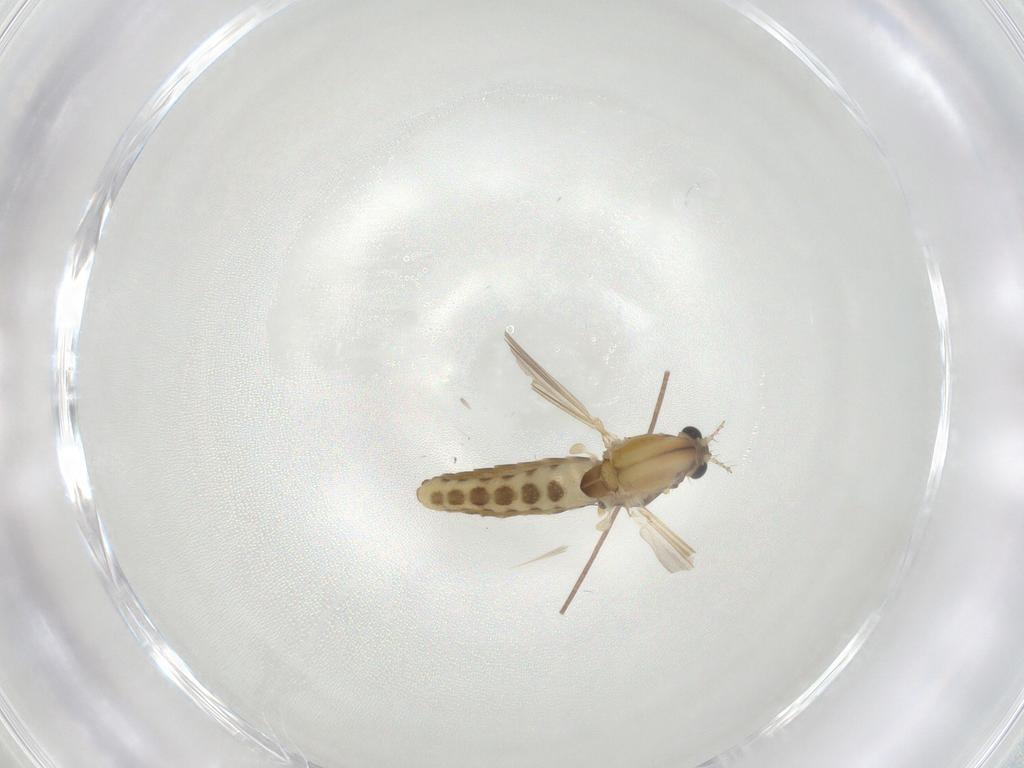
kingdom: Animalia
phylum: Arthropoda
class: Insecta
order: Diptera
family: Chironomidae
